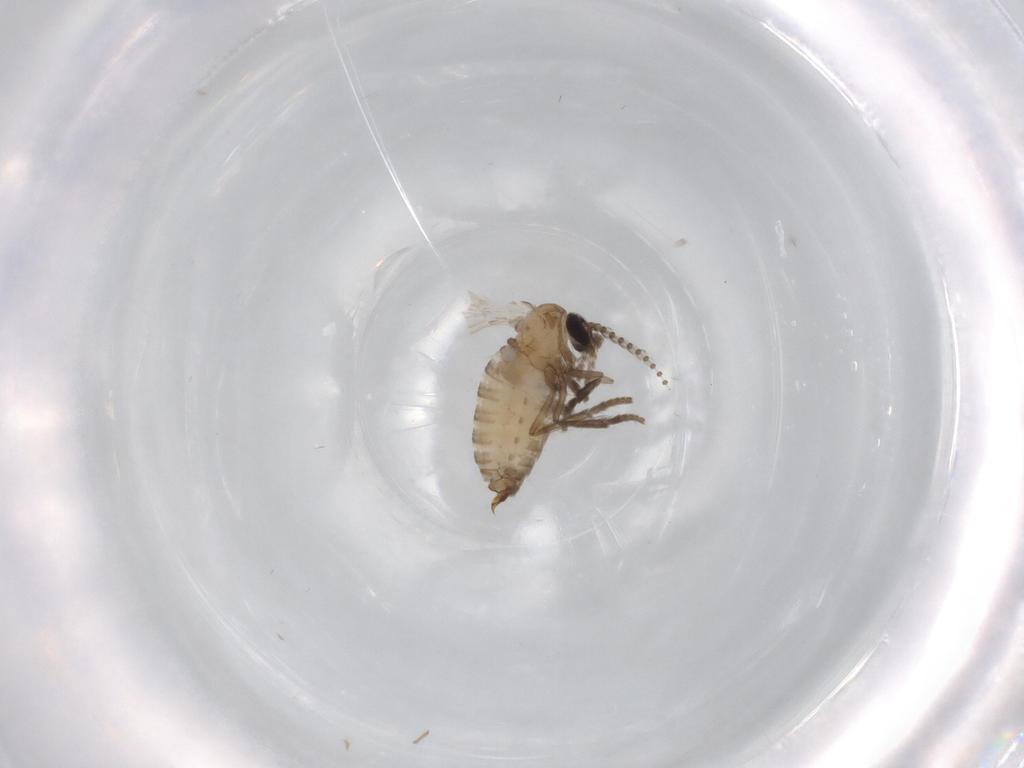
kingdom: Animalia
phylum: Arthropoda
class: Insecta
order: Diptera
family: Psychodidae
